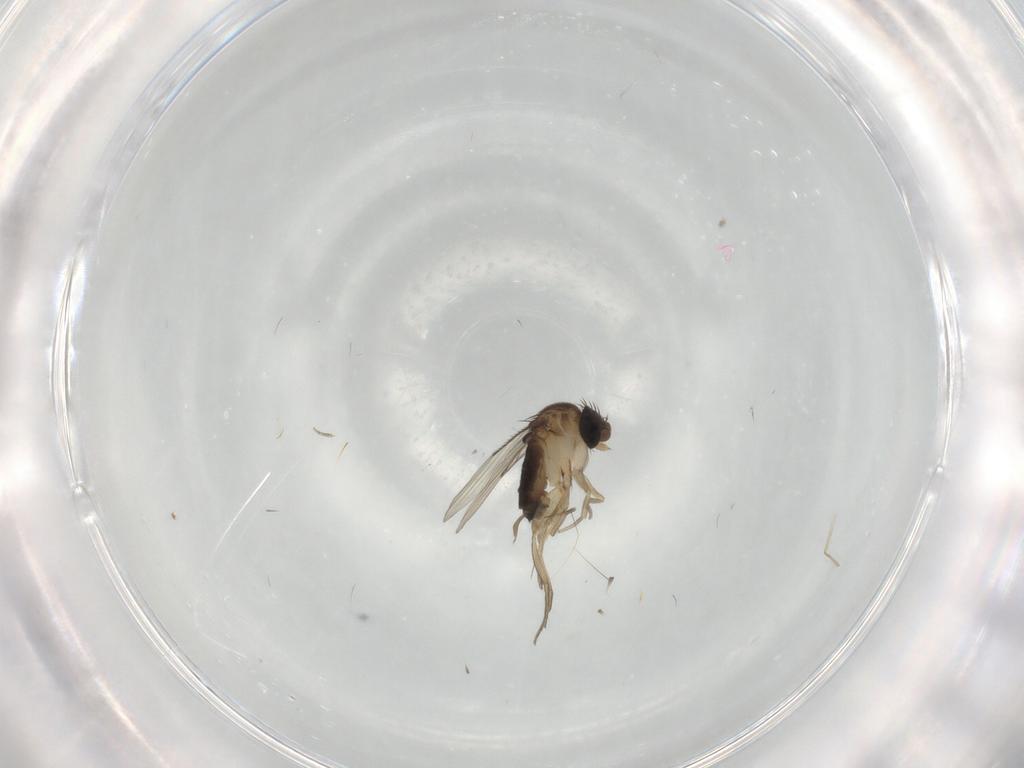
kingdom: Animalia
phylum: Arthropoda
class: Insecta
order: Diptera
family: Chironomidae
